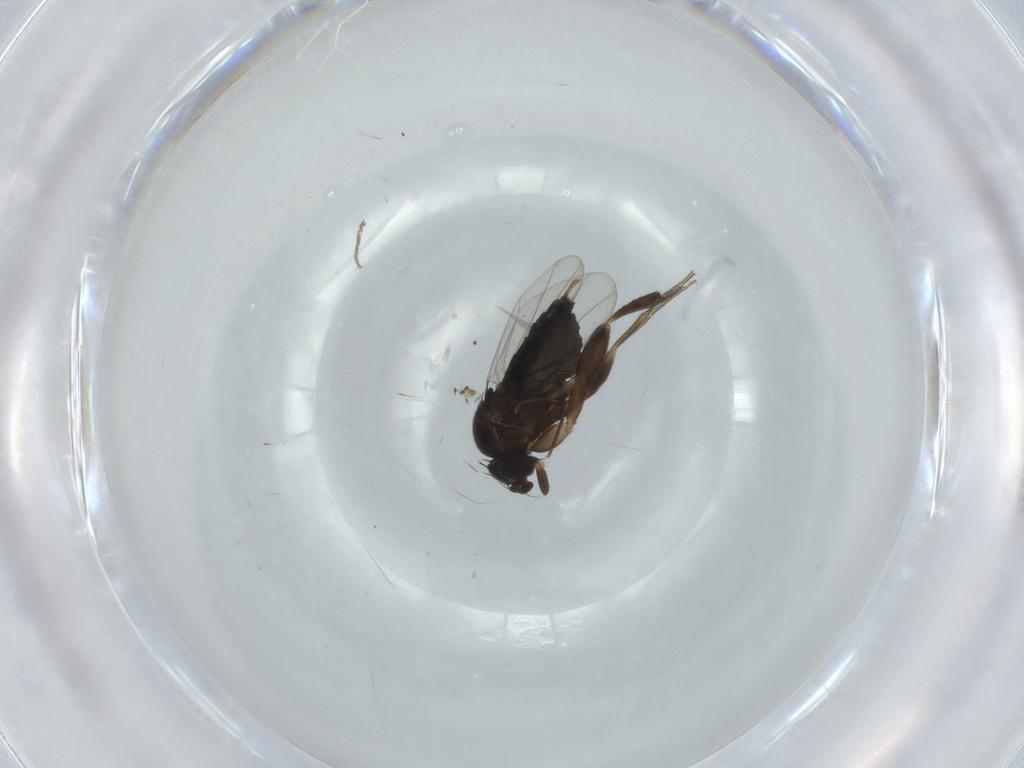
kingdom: Animalia
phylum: Arthropoda
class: Insecta
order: Diptera
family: Phoridae
